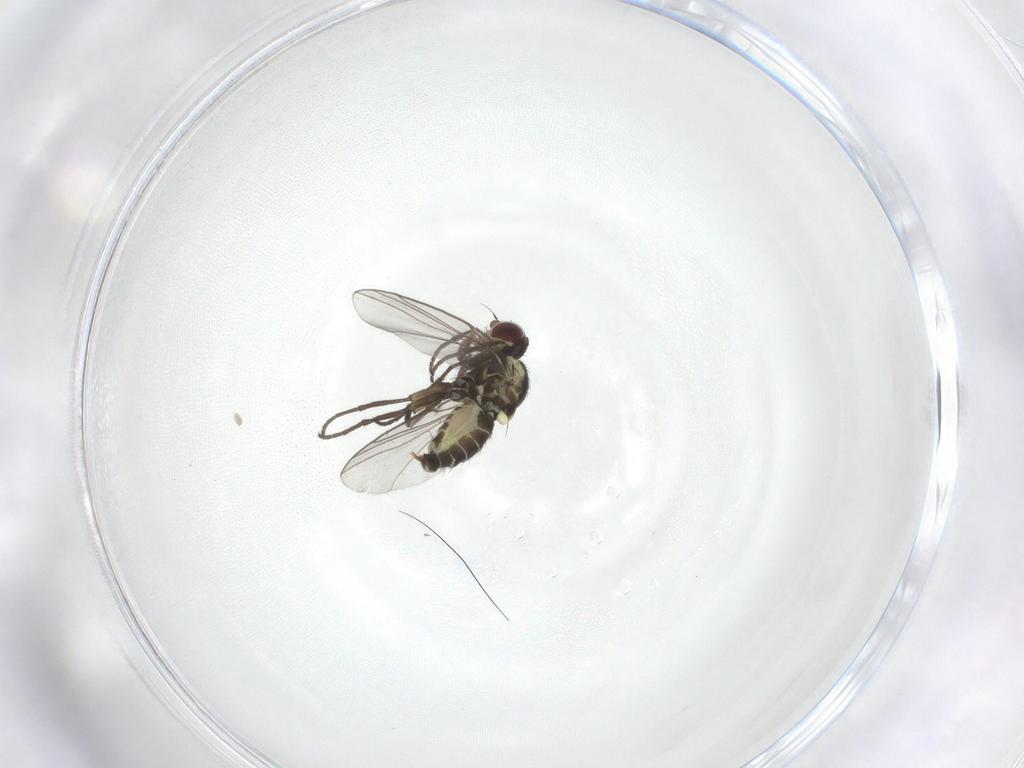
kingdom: Animalia
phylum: Arthropoda
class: Insecta
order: Diptera
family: Agromyzidae
